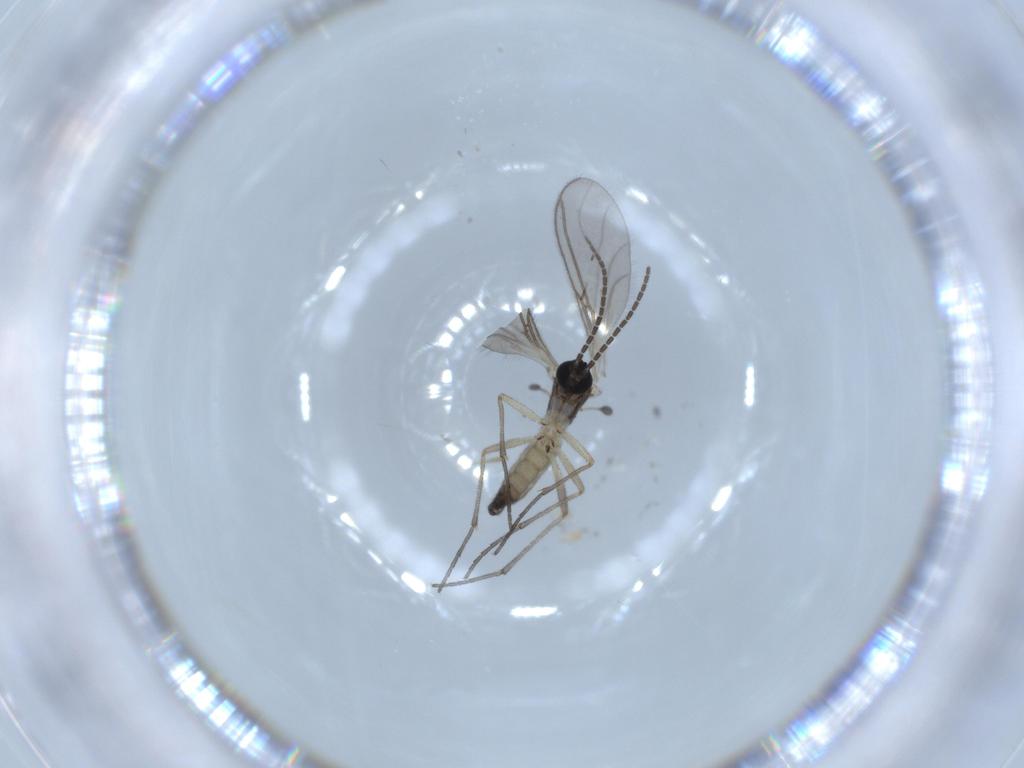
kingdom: Animalia
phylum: Arthropoda
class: Insecta
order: Diptera
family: Sciaridae
